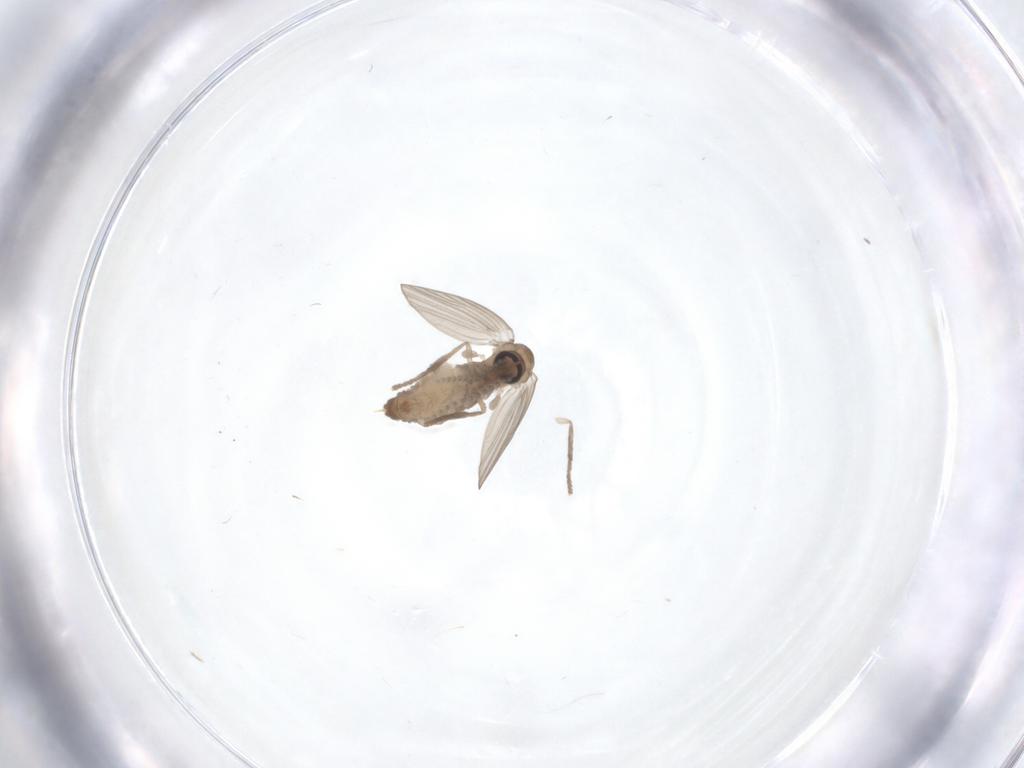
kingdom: Animalia
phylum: Arthropoda
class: Insecta
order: Diptera
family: Psychodidae
